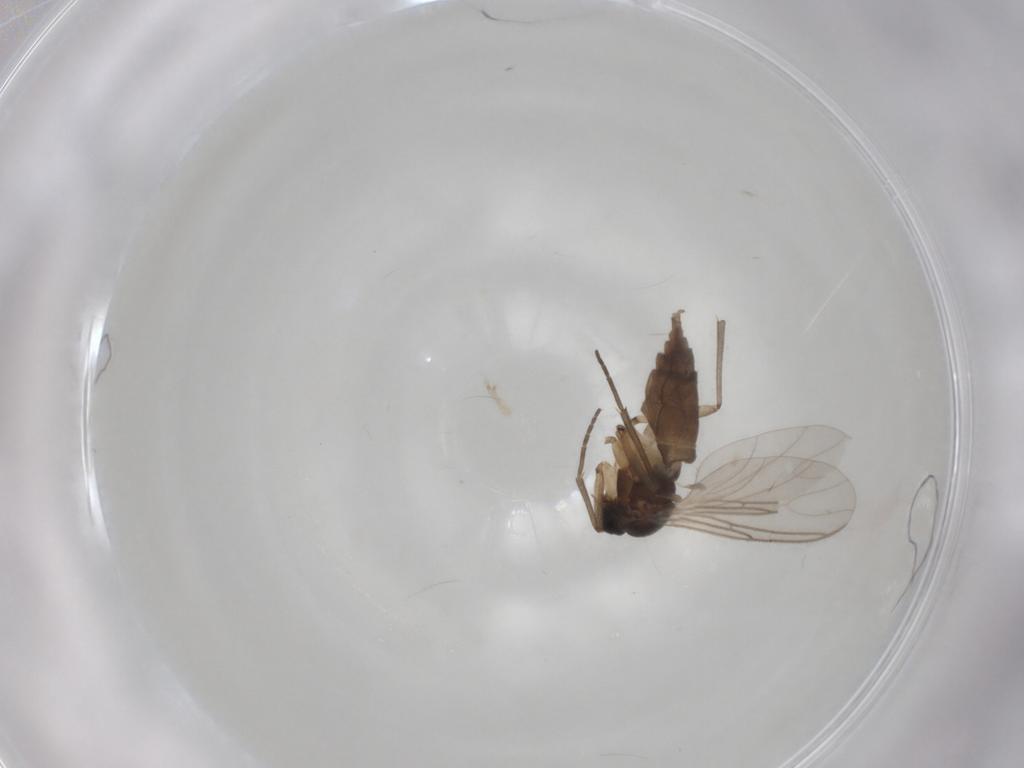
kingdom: Animalia
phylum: Arthropoda
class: Insecta
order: Diptera
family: Sciaridae
